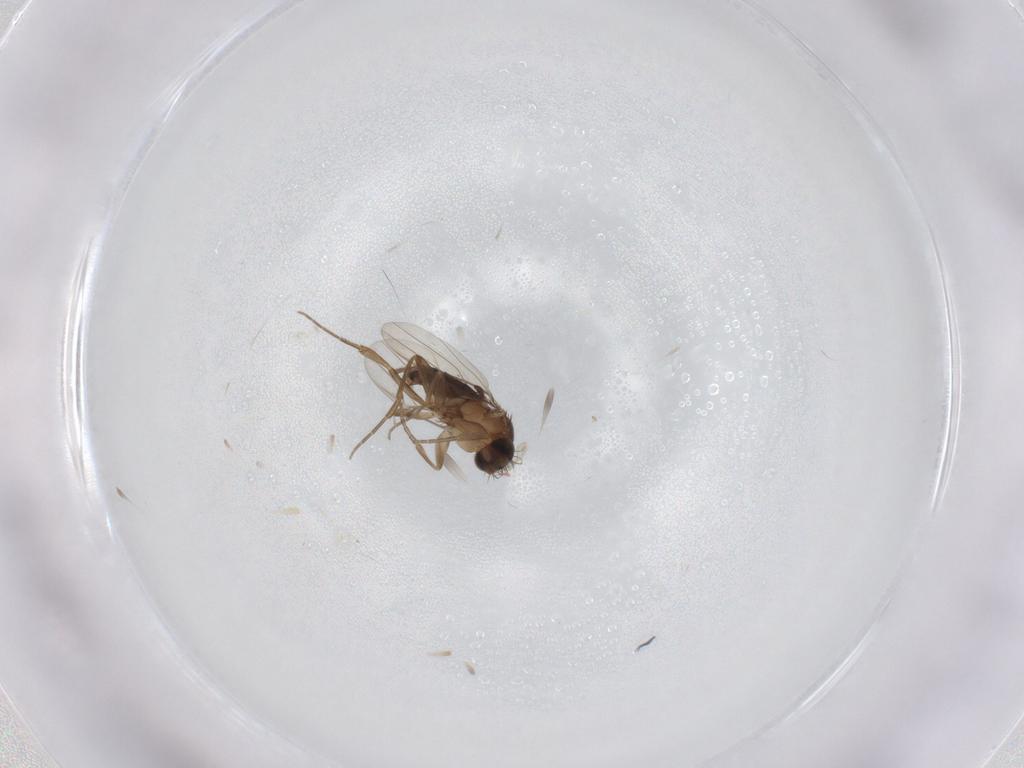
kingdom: Animalia
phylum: Arthropoda
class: Insecta
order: Diptera
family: Phoridae
